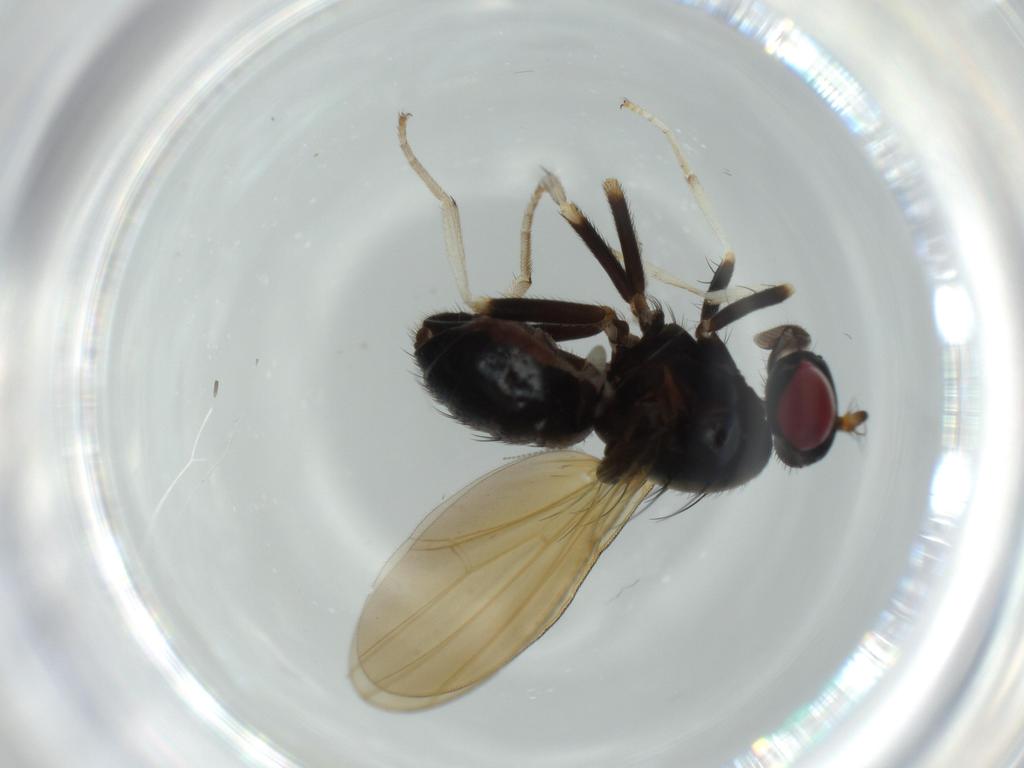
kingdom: Animalia
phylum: Arthropoda
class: Insecta
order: Diptera
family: Ceratopogonidae
